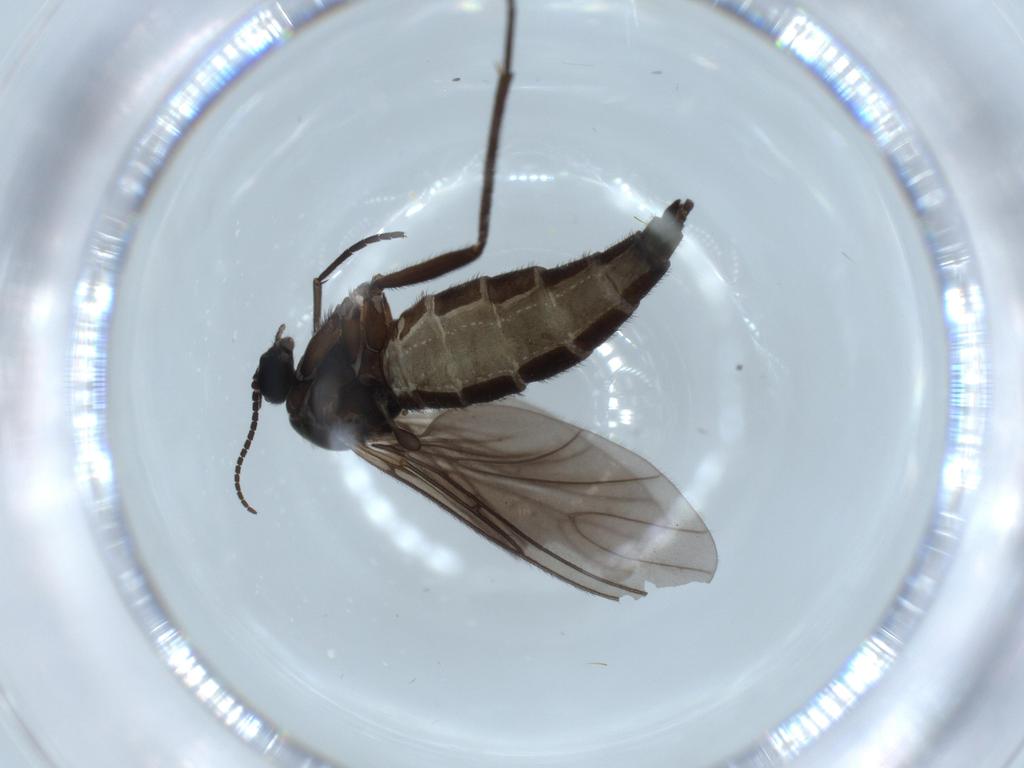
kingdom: Animalia
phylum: Arthropoda
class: Insecta
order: Diptera
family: Sciaridae
